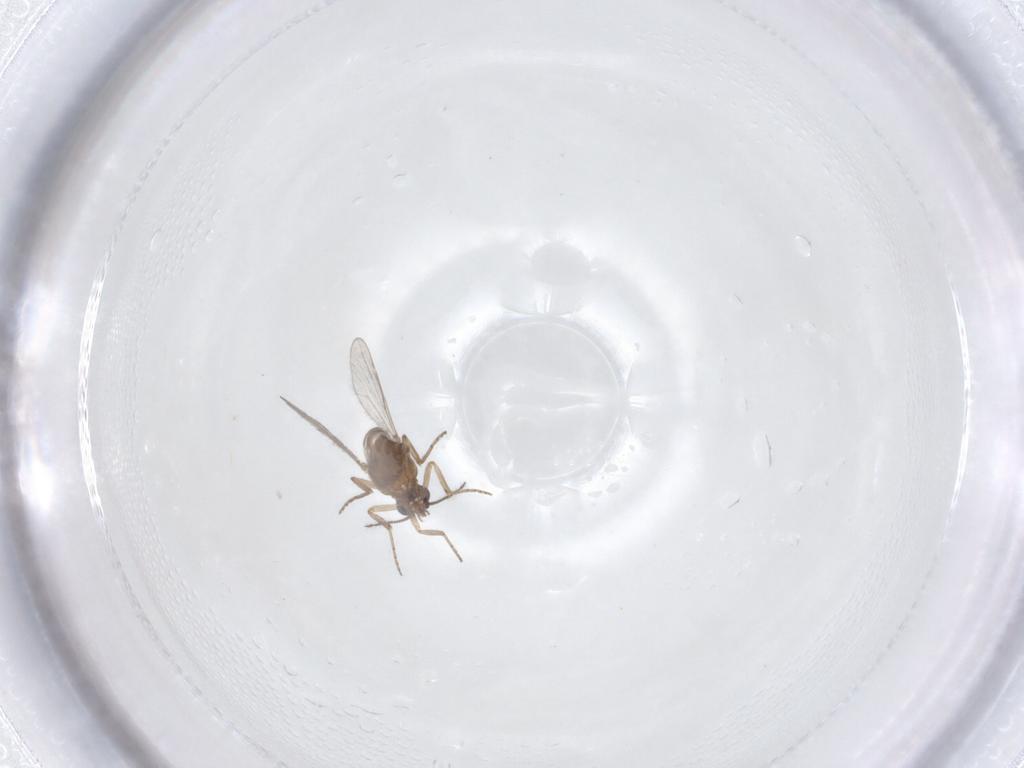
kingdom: Animalia
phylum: Arthropoda
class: Insecta
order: Diptera
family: Ceratopogonidae
